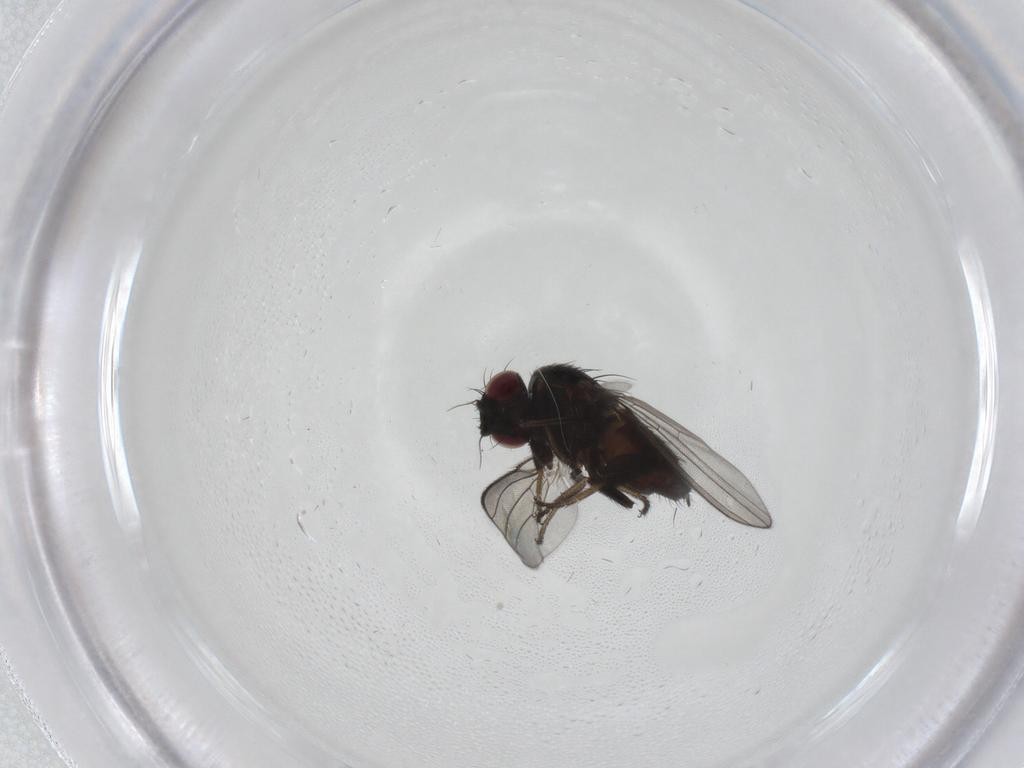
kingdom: Animalia
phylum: Arthropoda
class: Insecta
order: Diptera
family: Milichiidae
